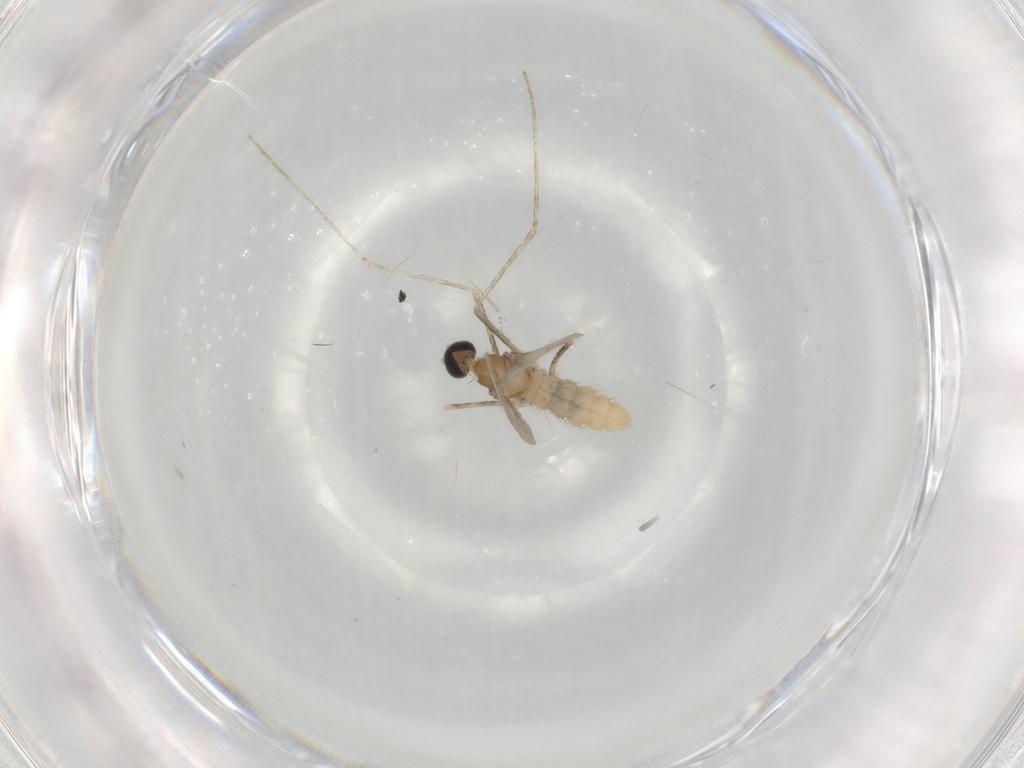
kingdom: Animalia
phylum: Arthropoda
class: Insecta
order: Diptera
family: Cecidomyiidae
